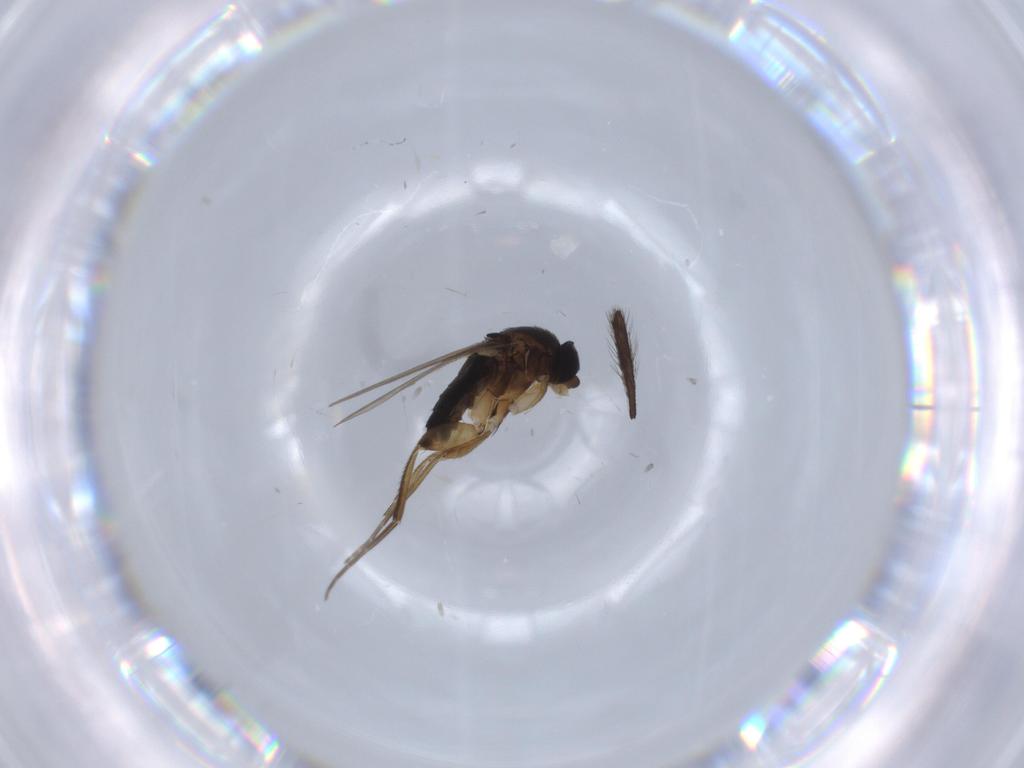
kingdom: Animalia
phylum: Arthropoda
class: Insecta
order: Diptera
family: Culicidae
